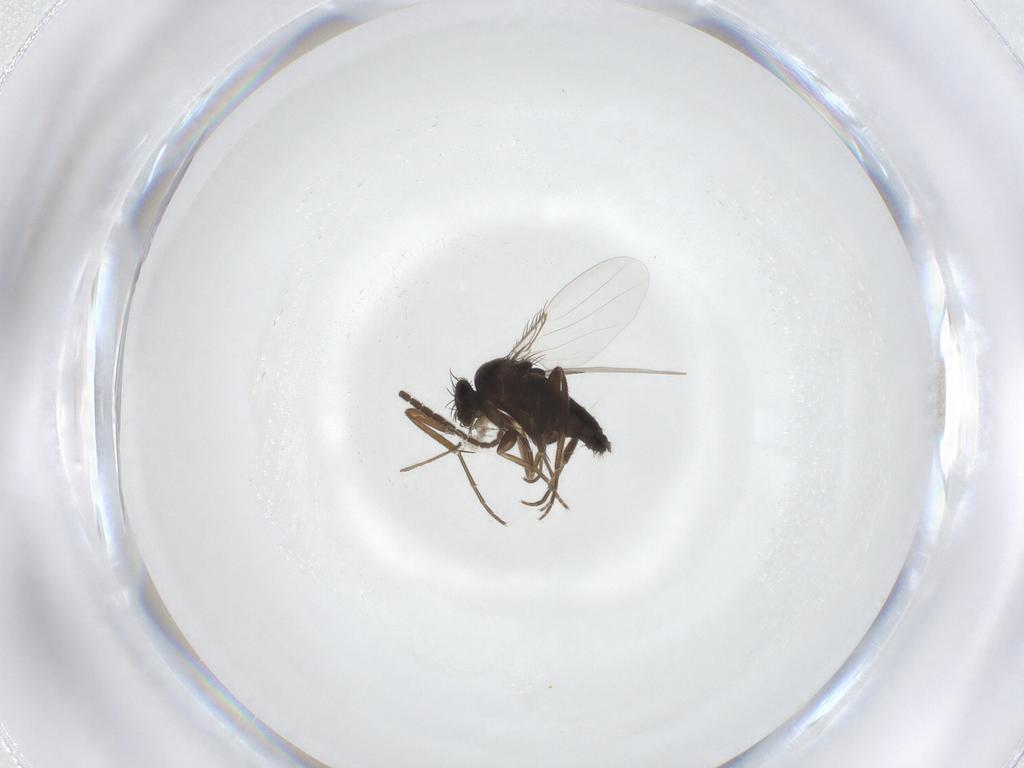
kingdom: Animalia
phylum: Arthropoda
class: Insecta
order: Diptera
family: Phoridae
